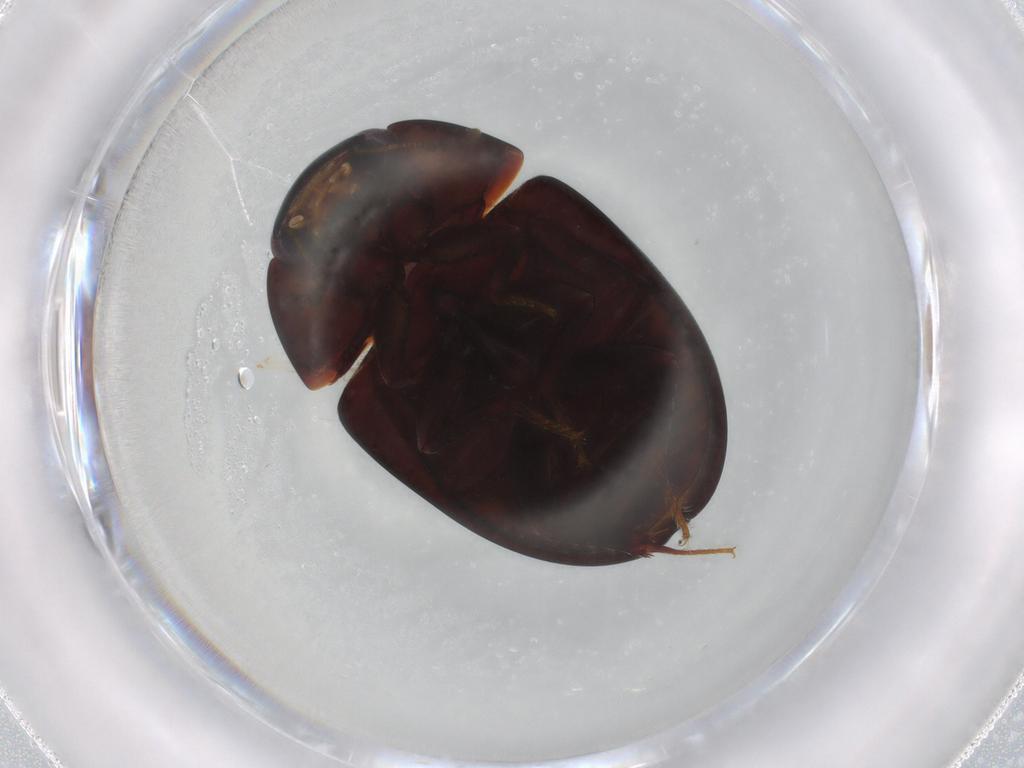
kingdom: Animalia
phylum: Arthropoda
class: Insecta
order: Coleoptera
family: Hydrophilidae
